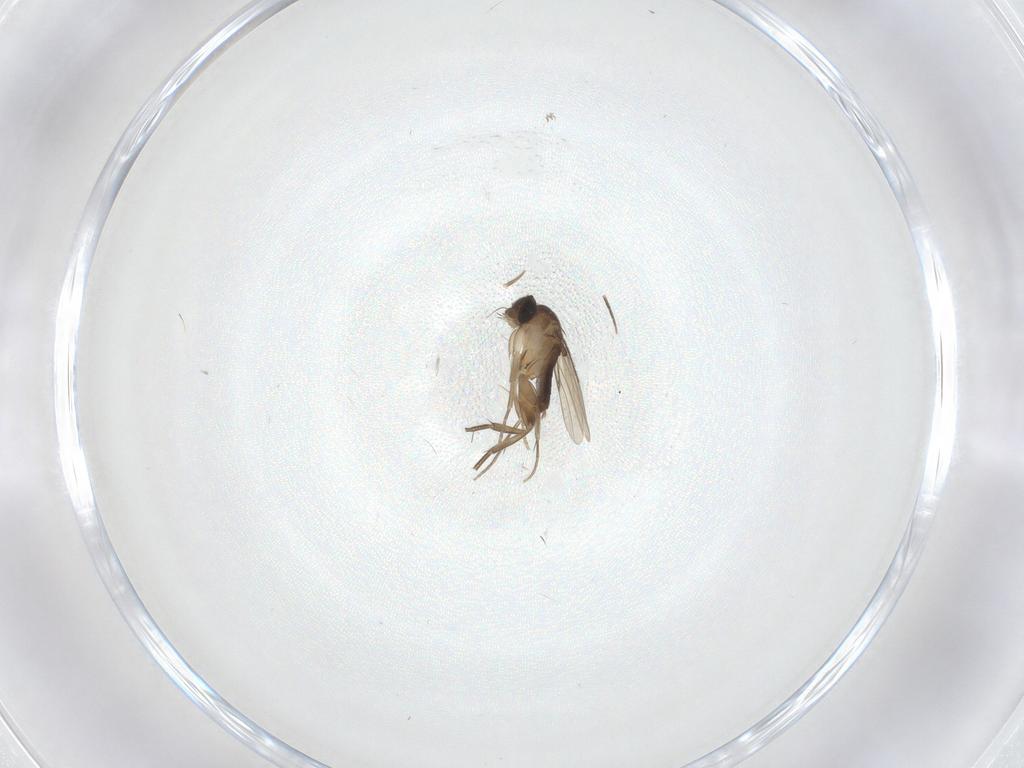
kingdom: Animalia
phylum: Arthropoda
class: Insecta
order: Diptera
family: Phoridae
